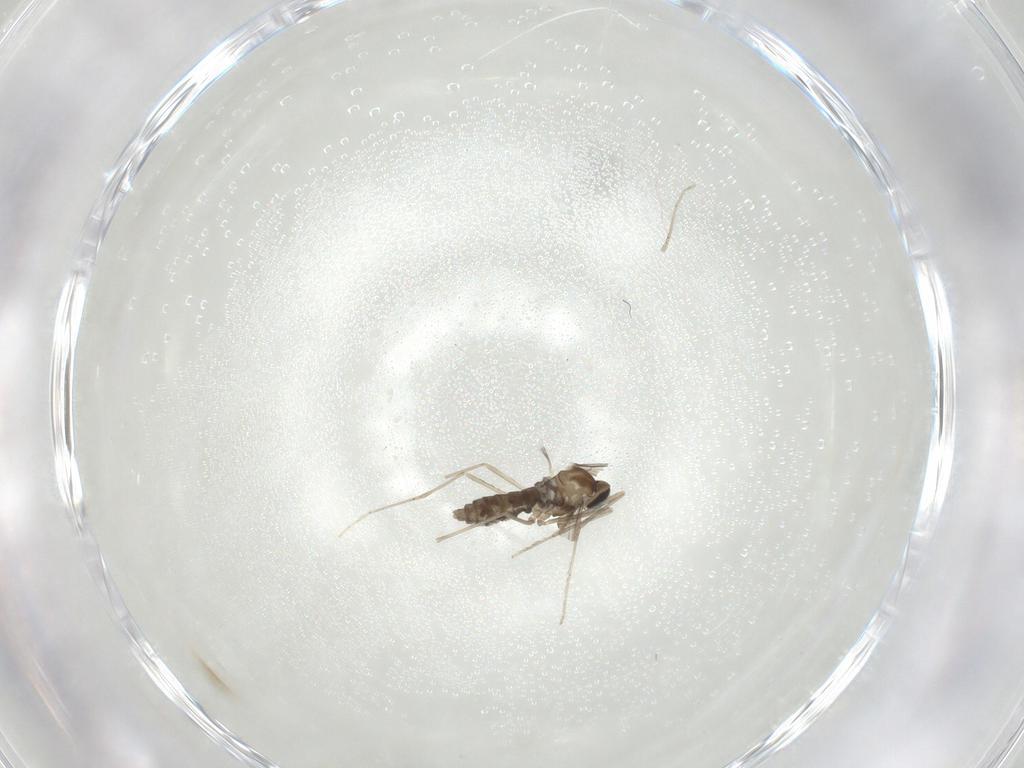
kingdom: Animalia
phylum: Arthropoda
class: Insecta
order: Diptera
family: Cecidomyiidae
